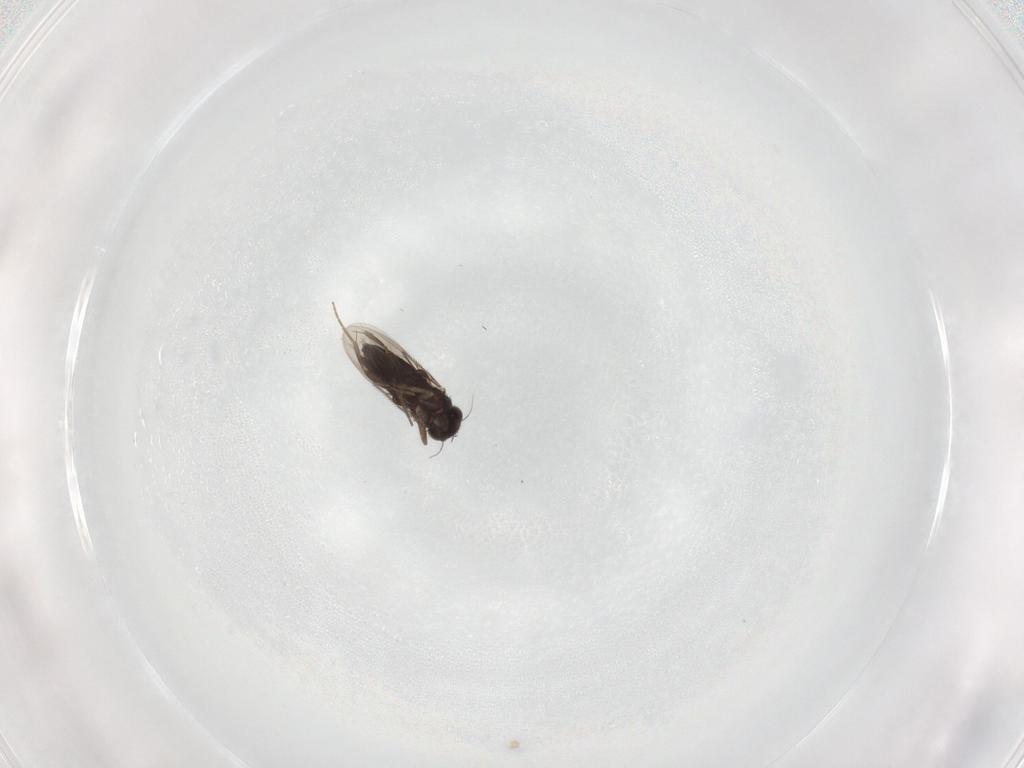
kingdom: Animalia
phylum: Arthropoda
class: Insecta
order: Diptera
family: Phoridae
